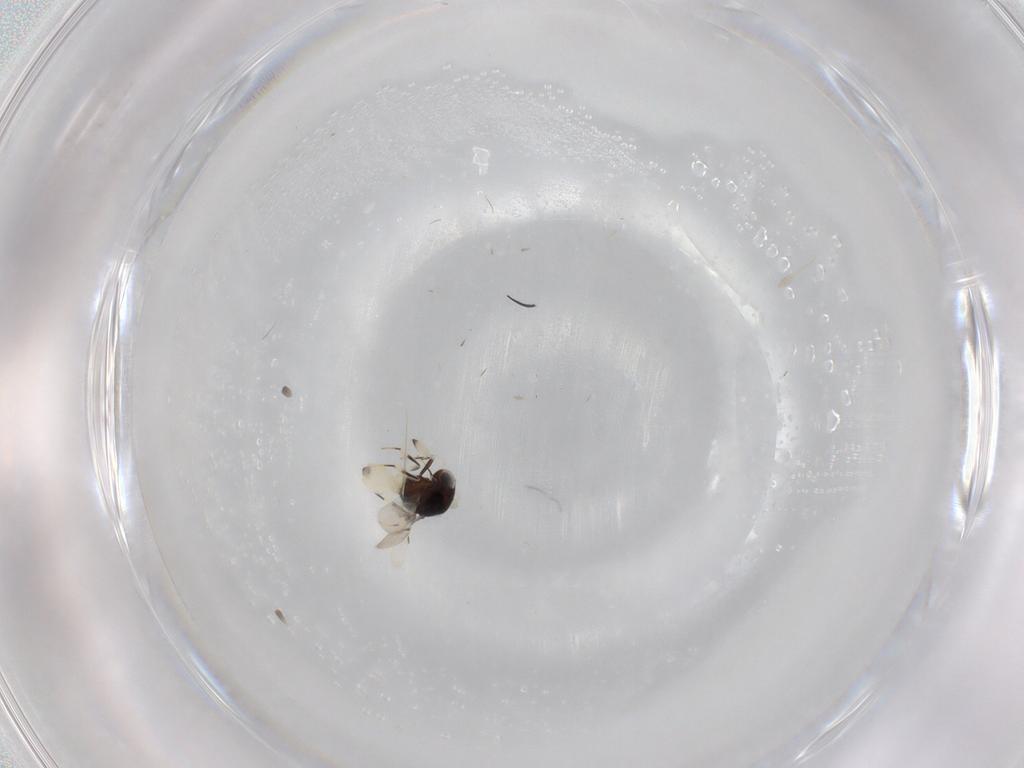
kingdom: Animalia
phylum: Arthropoda
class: Insecta
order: Hymenoptera
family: Scelionidae
